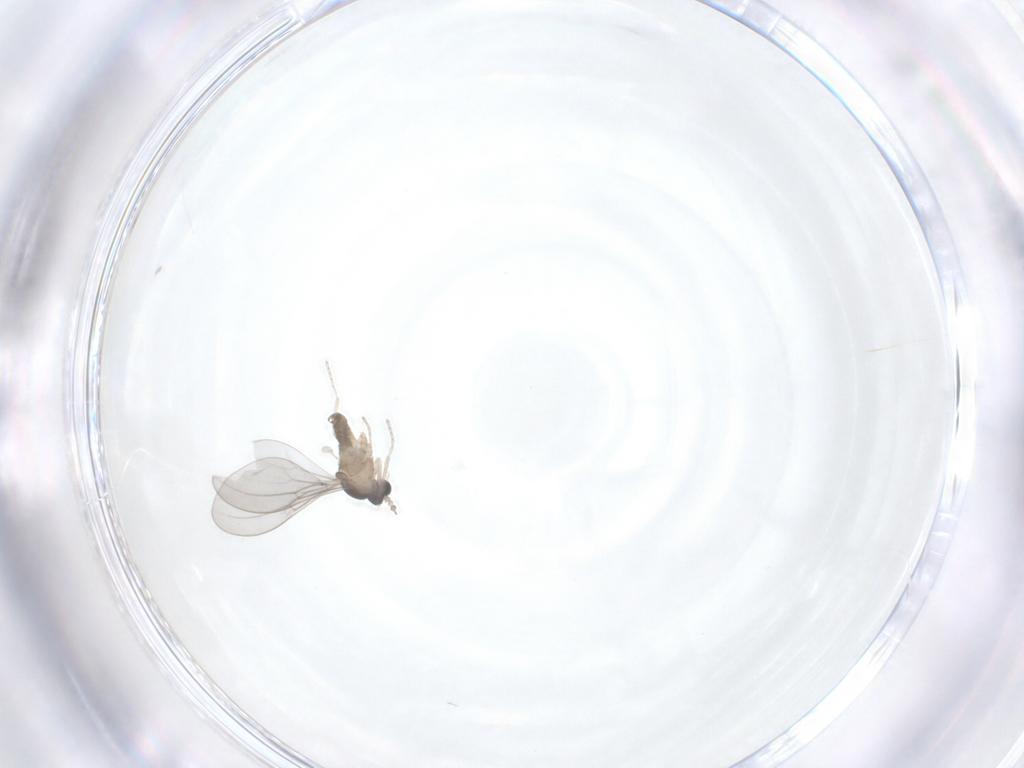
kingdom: Animalia
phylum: Arthropoda
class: Insecta
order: Diptera
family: Cecidomyiidae
